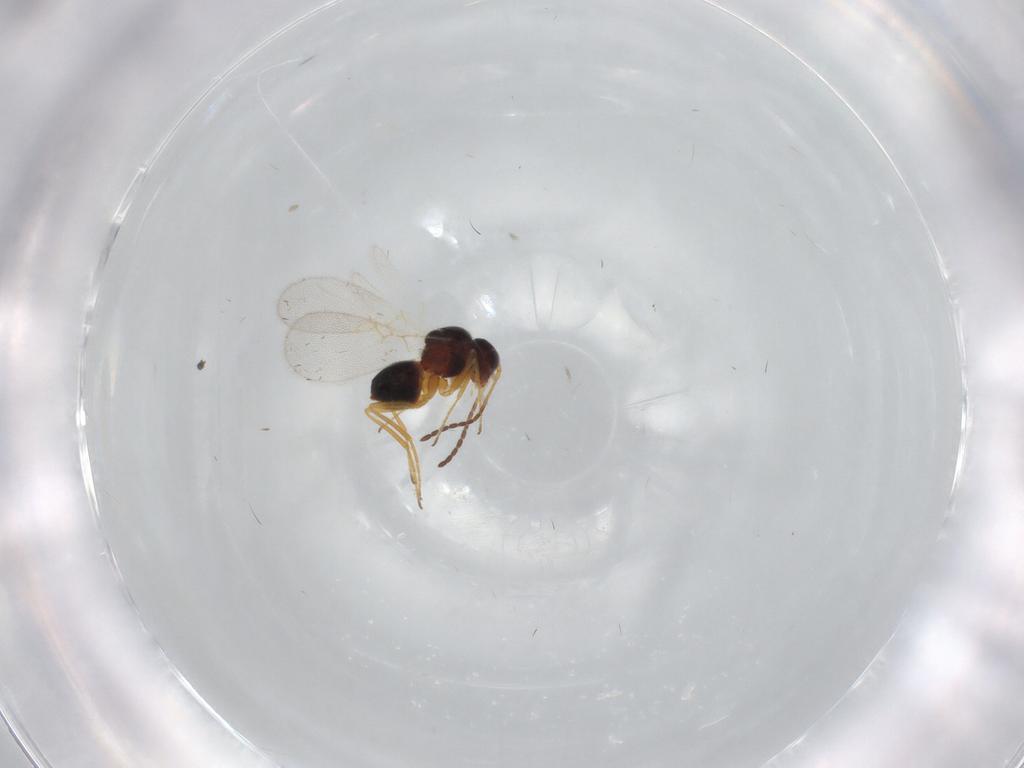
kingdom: Animalia
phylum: Arthropoda
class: Insecta
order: Hymenoptera
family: Figitidae
